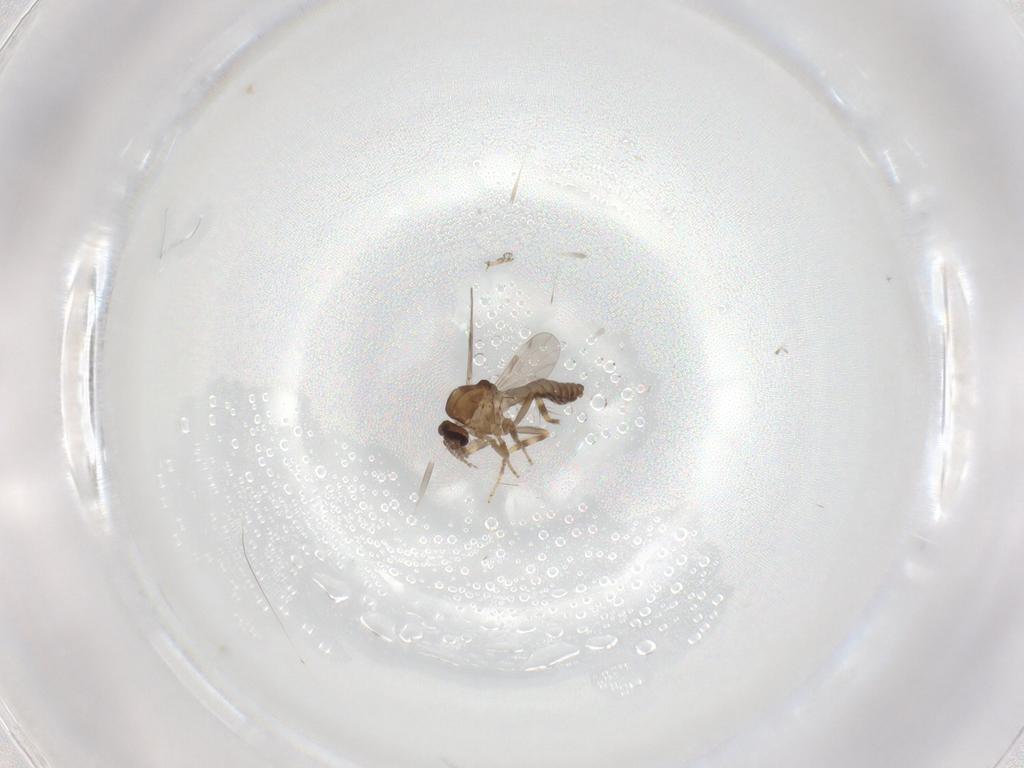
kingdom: Animalia
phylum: Arthropoda
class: Insecta
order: Diptera
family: Ceratopogonidae
